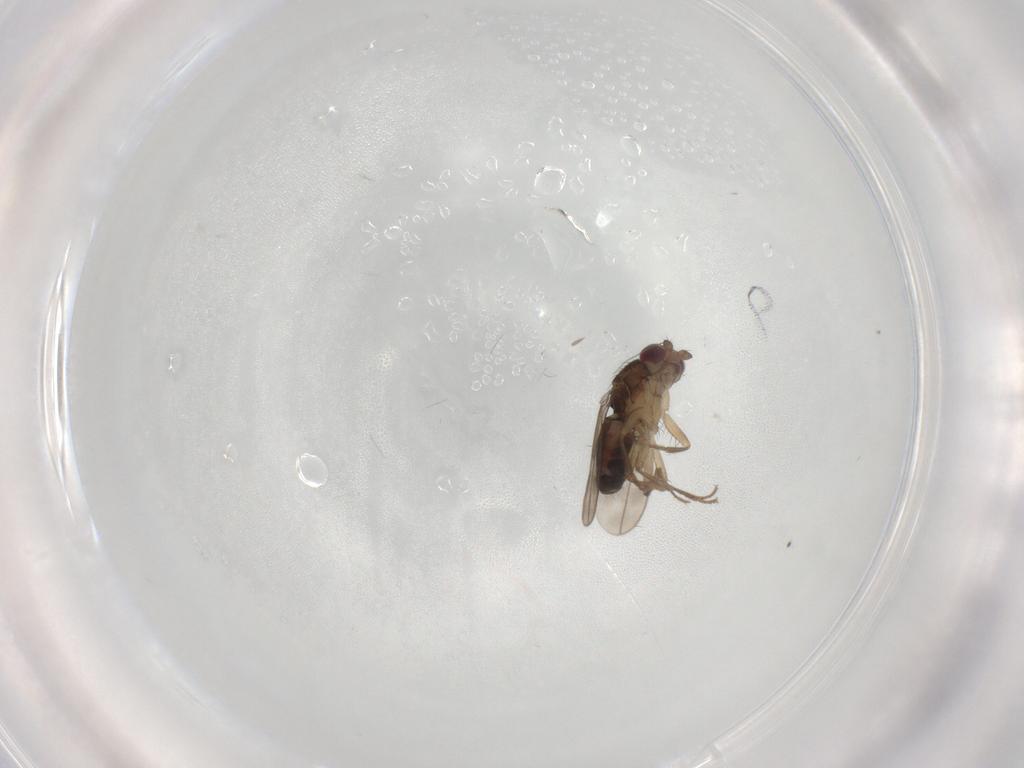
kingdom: Animalia
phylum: Arthropoda
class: Insecta
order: Diptera
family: Sphaeroceridae
